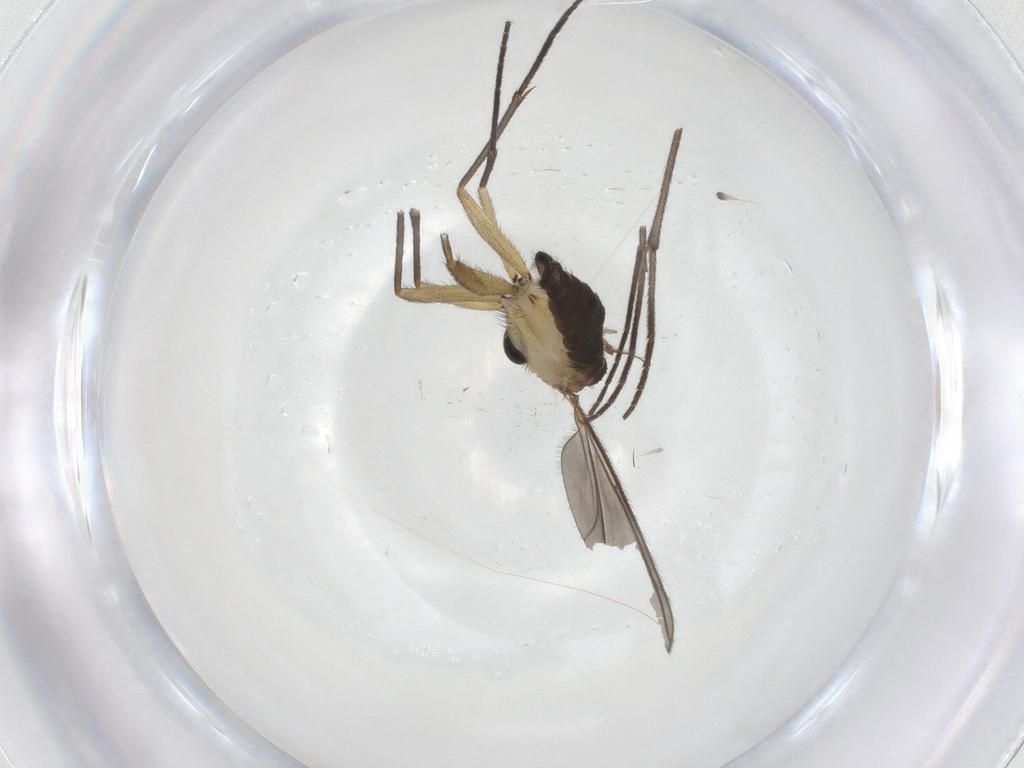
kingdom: Animalia
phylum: Arthropoda
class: Insecta
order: Diptera
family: Sciaridae
